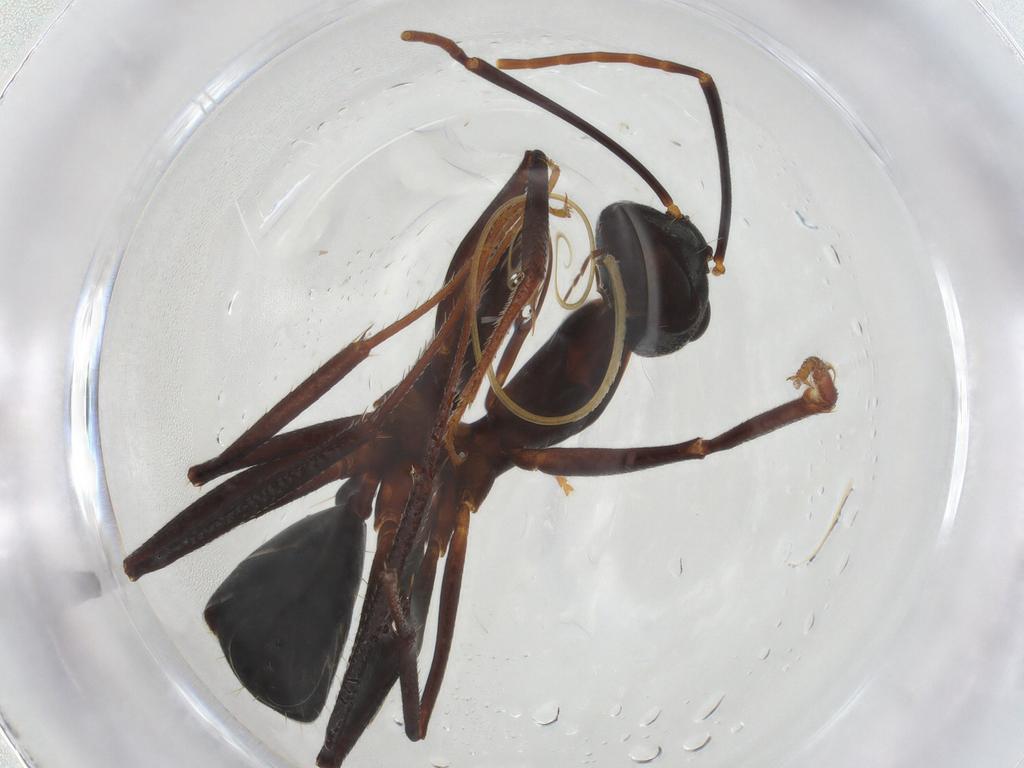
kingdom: Animalia
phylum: Arthropoda
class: Insecta
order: Hymenoptera
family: Formicidae
